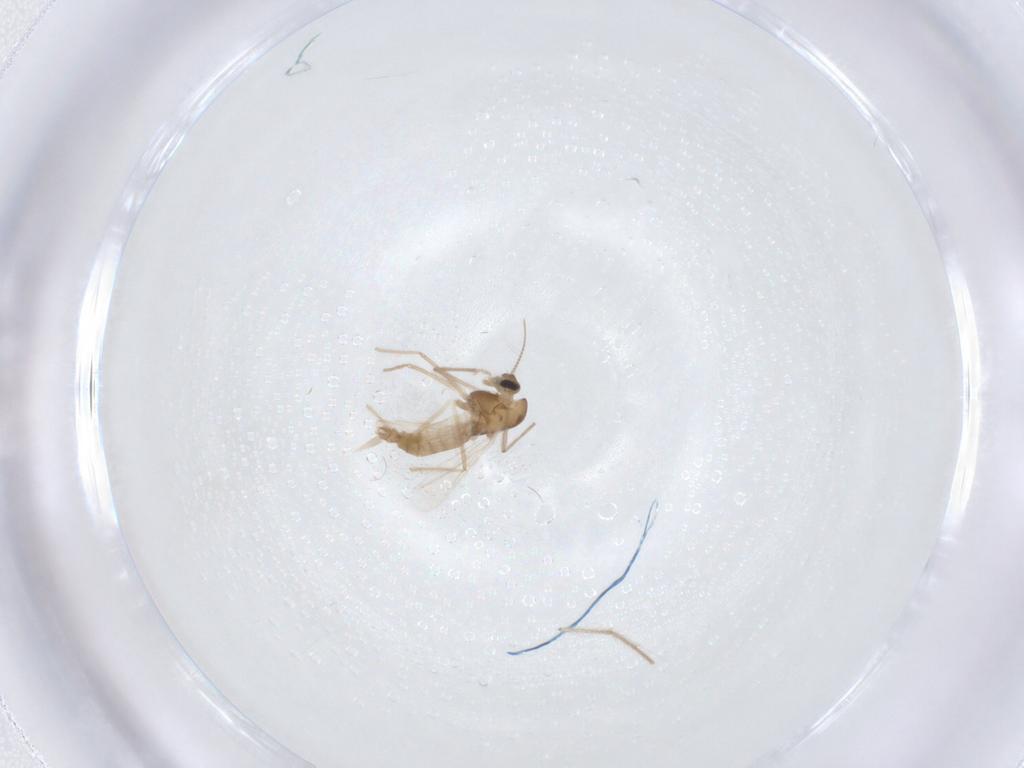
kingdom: Animalia
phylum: Arthropoda
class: Insecta
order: Diptera
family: Chironomidae
